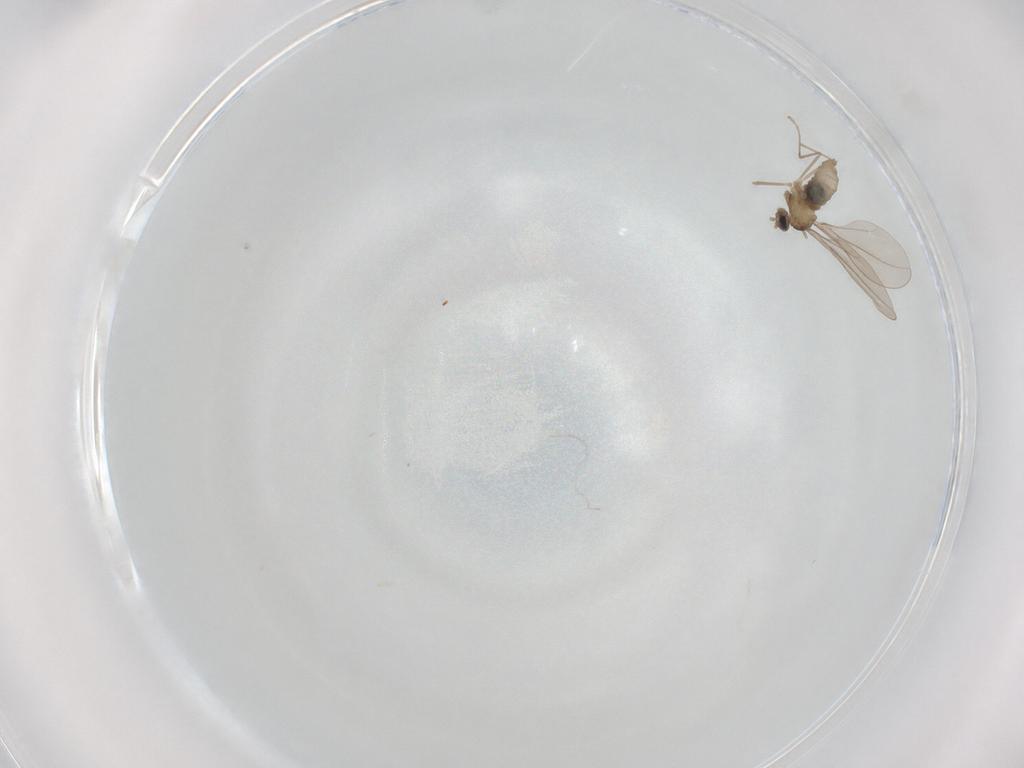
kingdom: Animalia
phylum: Arthropoda
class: Insecta
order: Diptera
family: Cecidomyiidae
